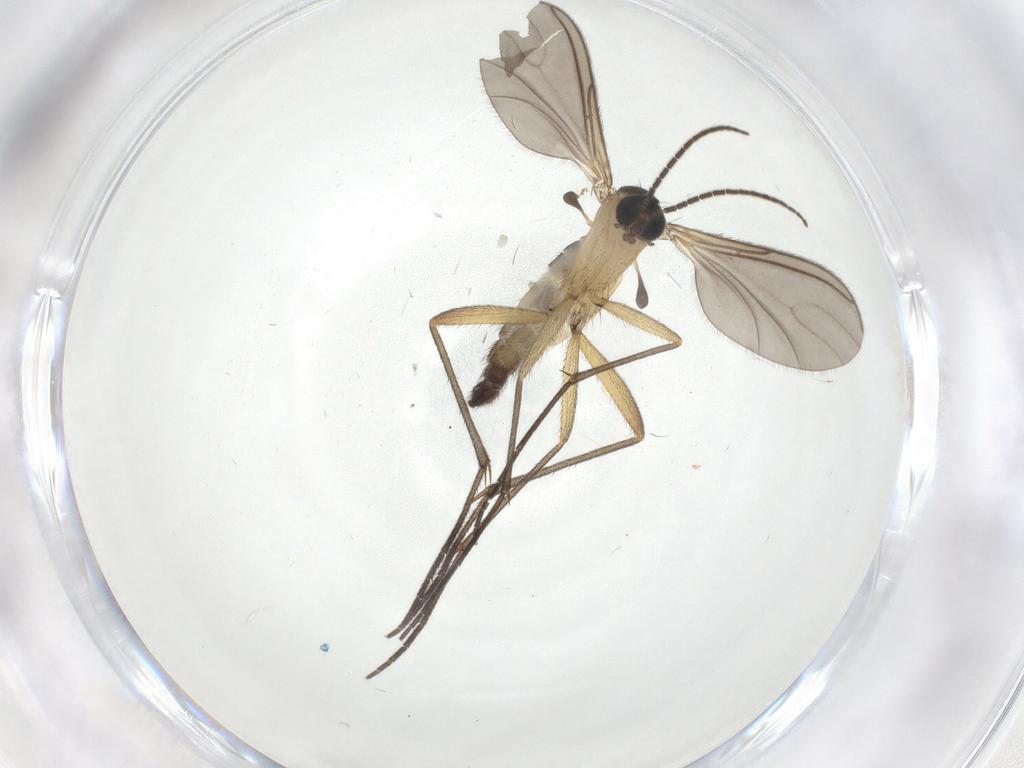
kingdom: Animalia
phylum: Arthropoda
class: Insecta
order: Diptera
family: Sciaridae
